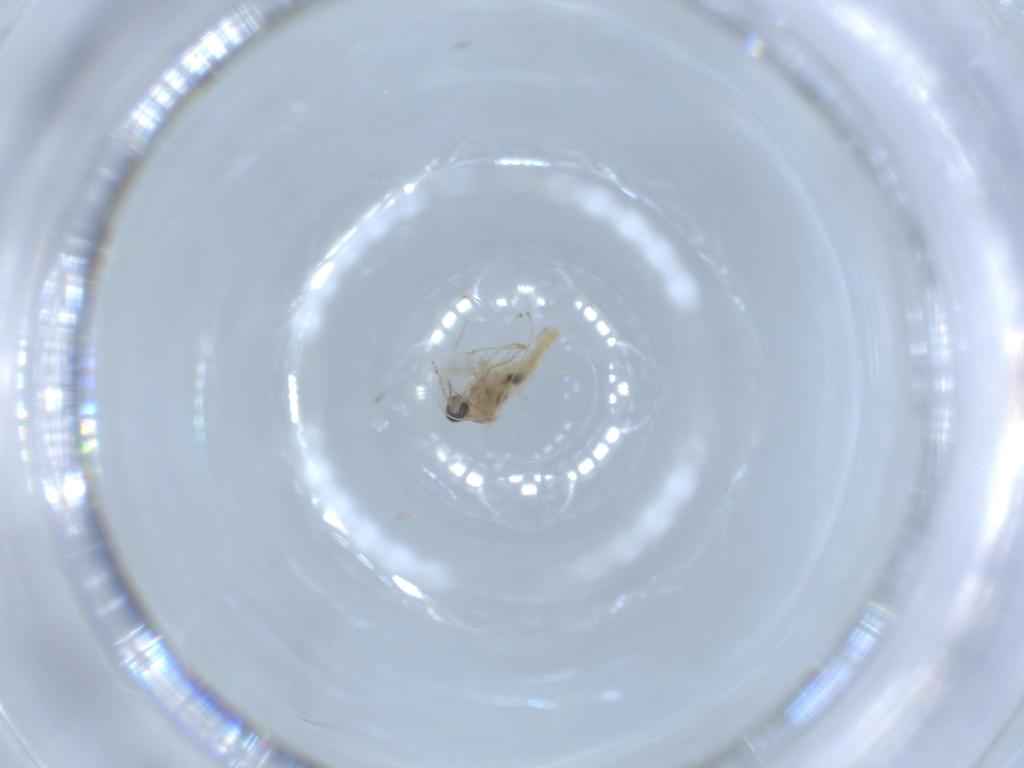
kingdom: Animalia
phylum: Arthropoda
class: Insecta
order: Diptera
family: Cecidomyiidae
